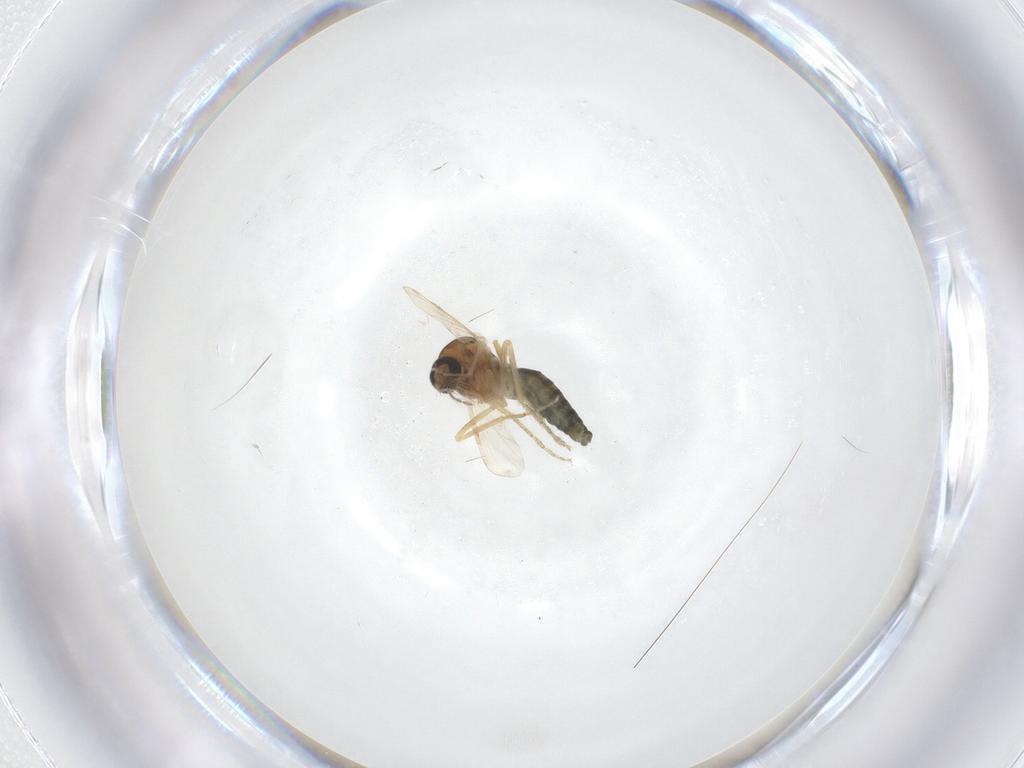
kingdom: Animalia
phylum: Arthropoda
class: Insecta
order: Diptera
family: Ceratopogonidae
